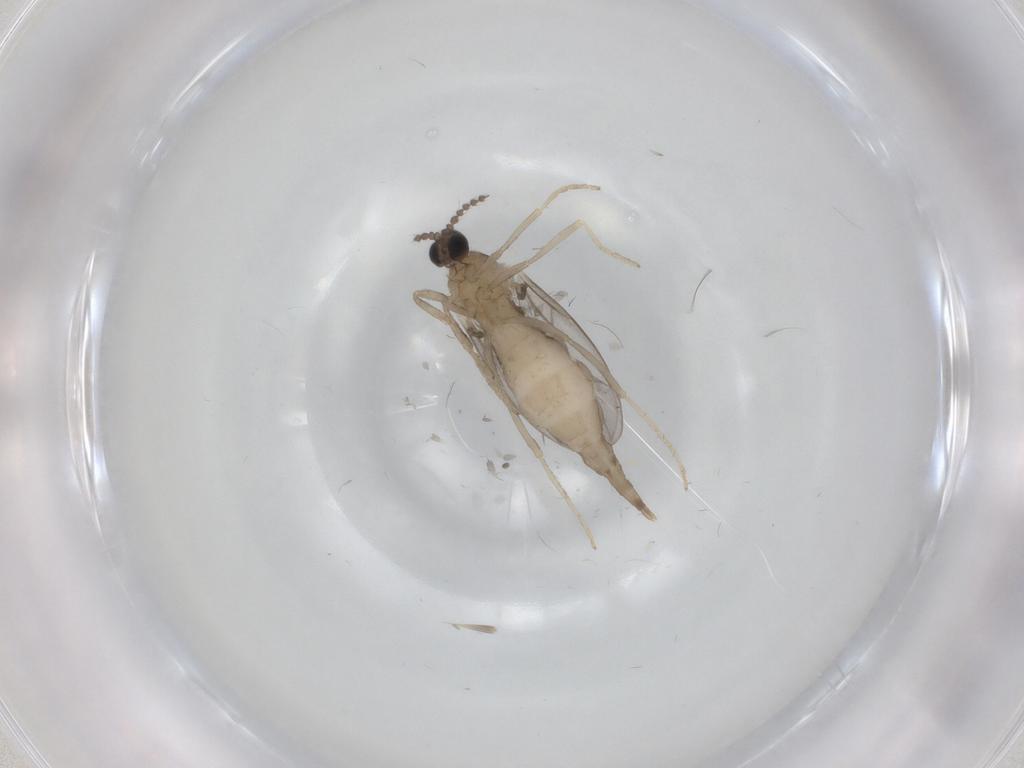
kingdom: Animalia
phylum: Arthropoda
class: Insecta
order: Diptera
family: Cecidomyiidae
